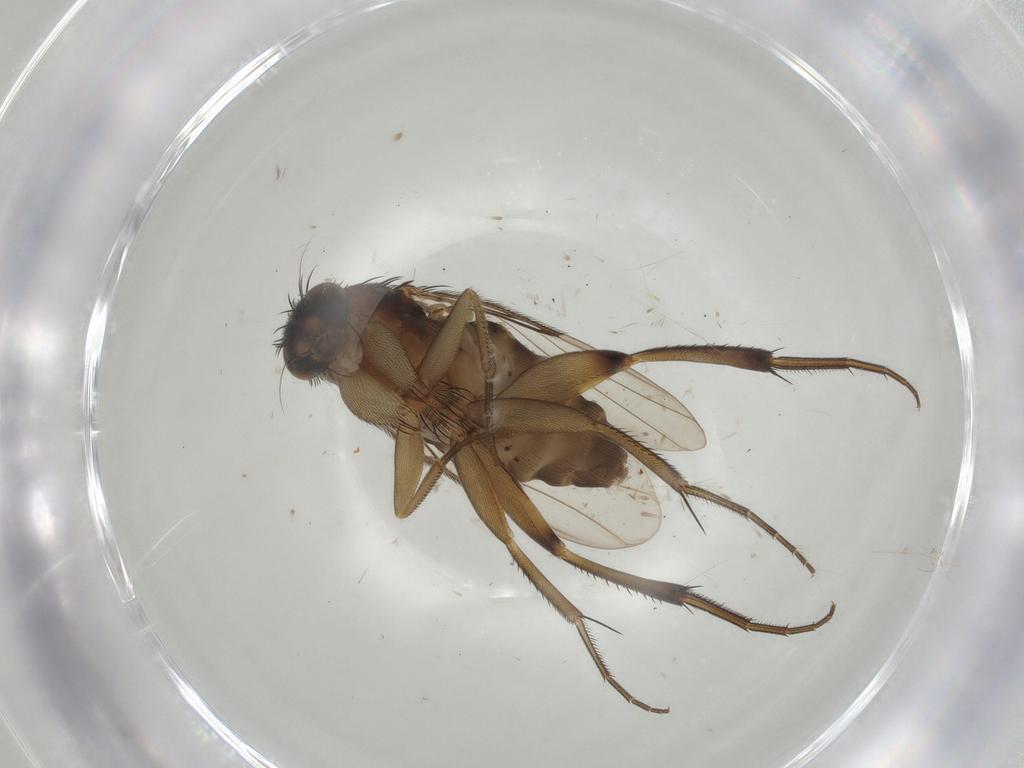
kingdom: Animalia
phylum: Arthropoda
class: Insecta
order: Diptera
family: Phoridae
